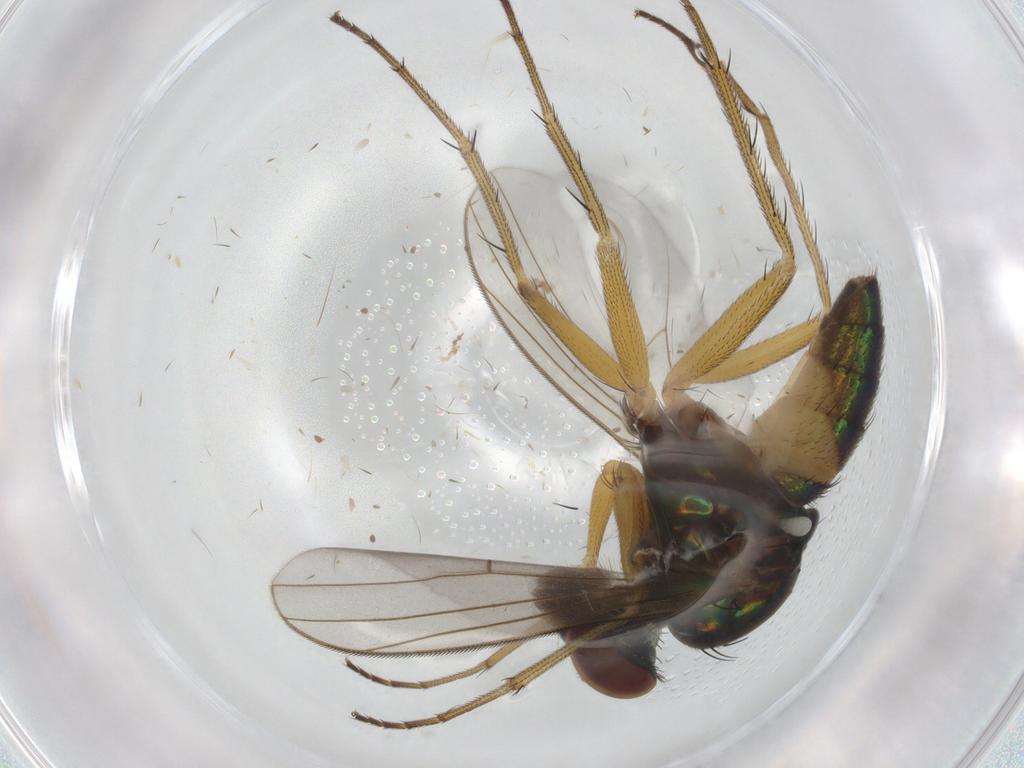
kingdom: Animalia
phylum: Arthropoda
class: Insecta
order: Diptera
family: Dolichopodidae
